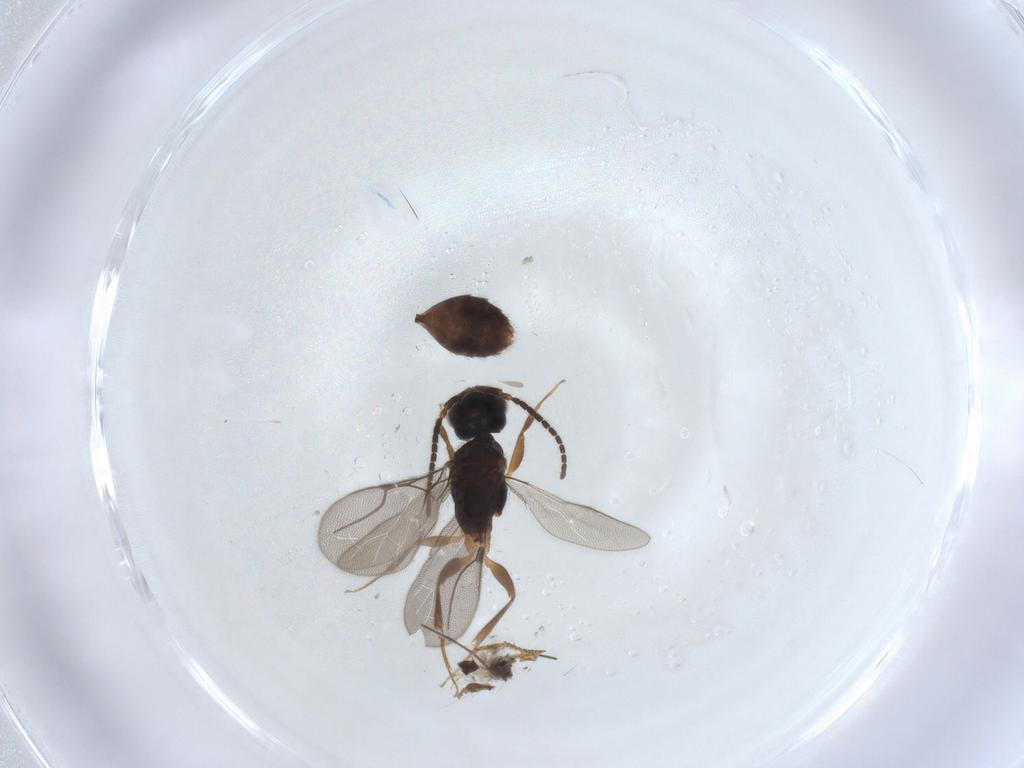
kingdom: Animalia
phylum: Arthropoda
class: Insecta
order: Hymenoptera
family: Bethylidae
